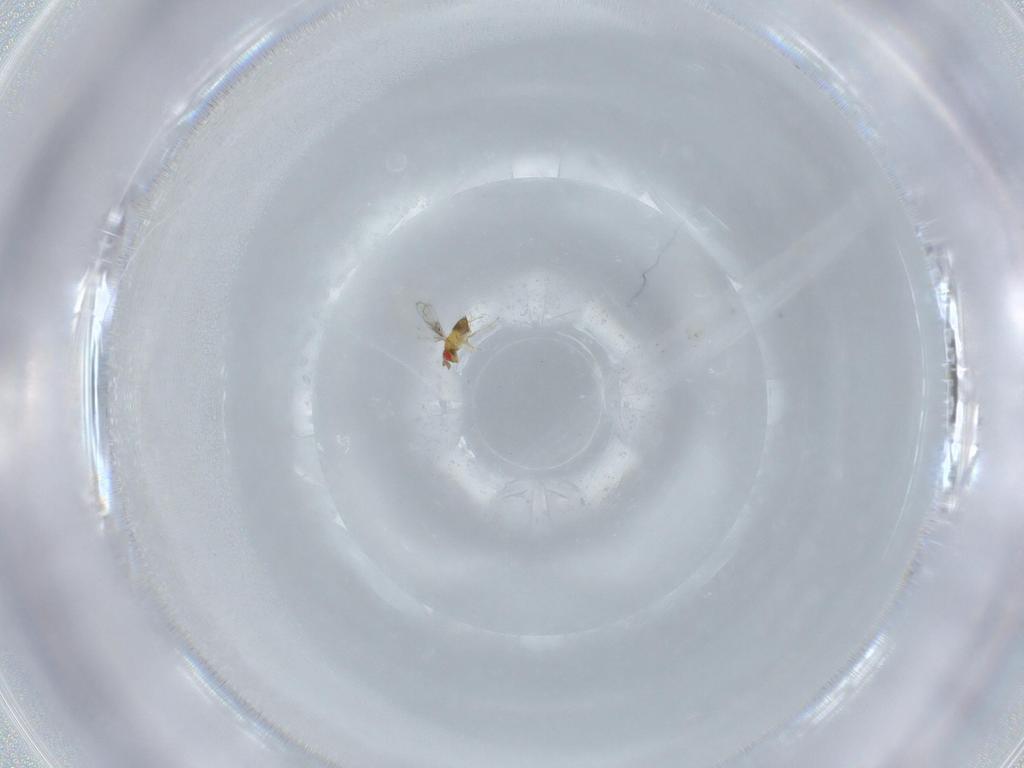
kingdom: Animalia
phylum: Arthropoda
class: Insecta
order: Hymenoptera
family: Trichogrammatidae
